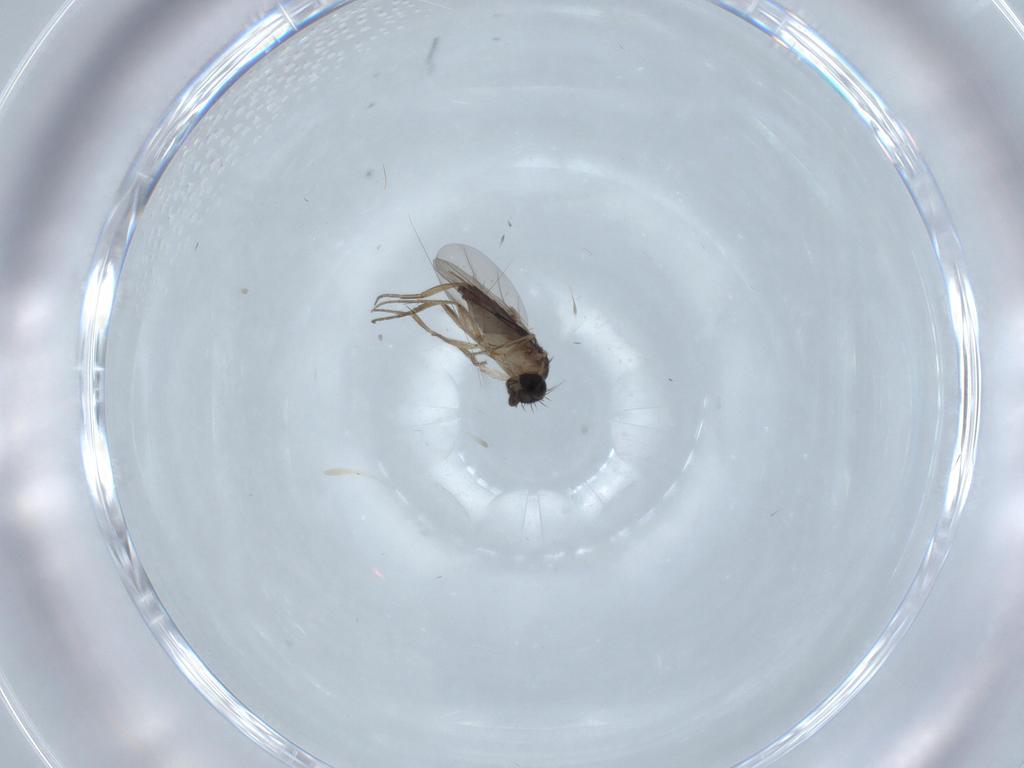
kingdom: Animalia
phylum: Arthropoda
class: Insecta
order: Diptera
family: Phoridae
